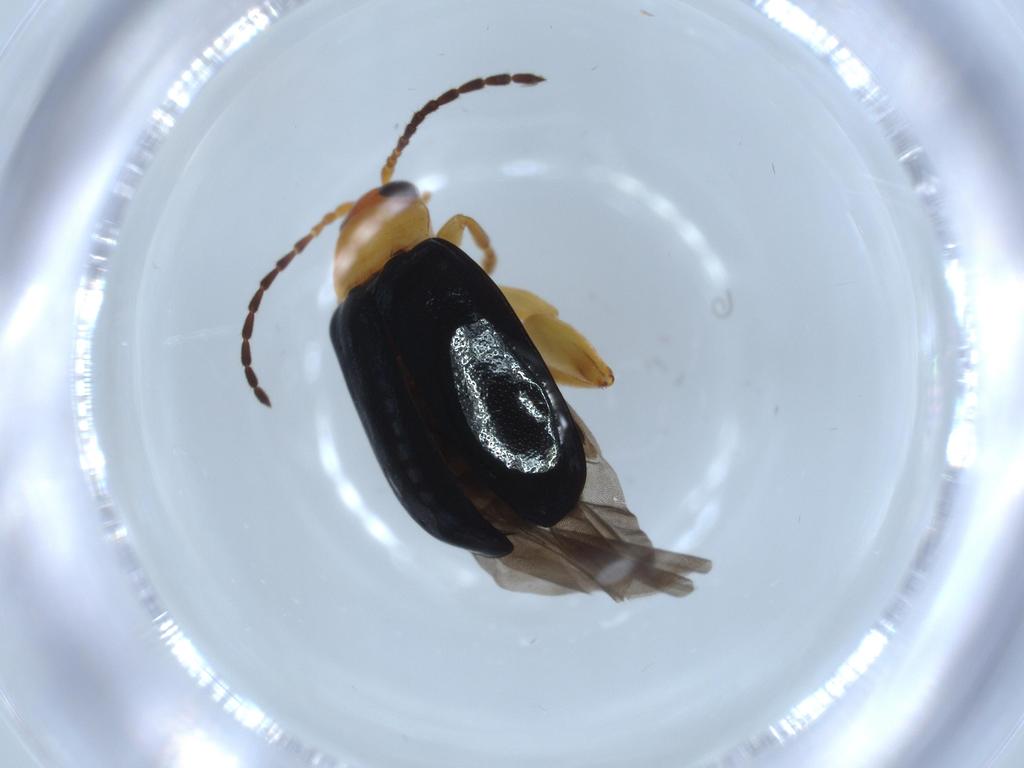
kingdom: Animalia
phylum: Arthropoda
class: Insecta
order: Coleoptera
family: Chrysomelidae
